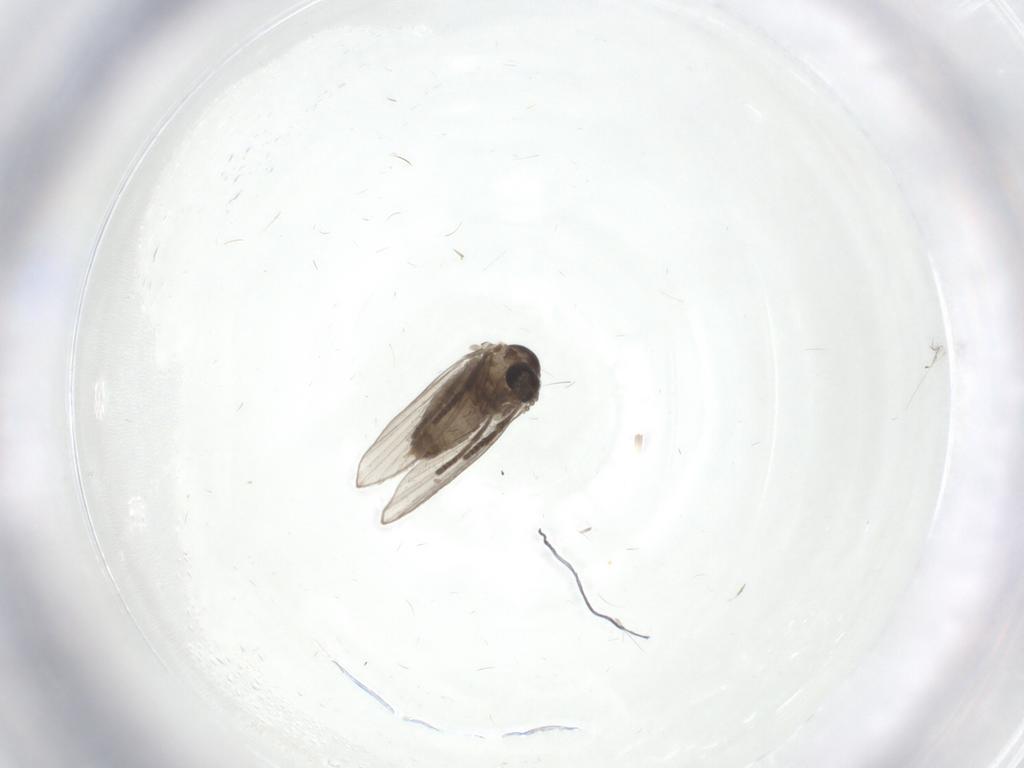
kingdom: Animalia
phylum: Arthropoda
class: Insecta
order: Diptera
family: Psychodidae
